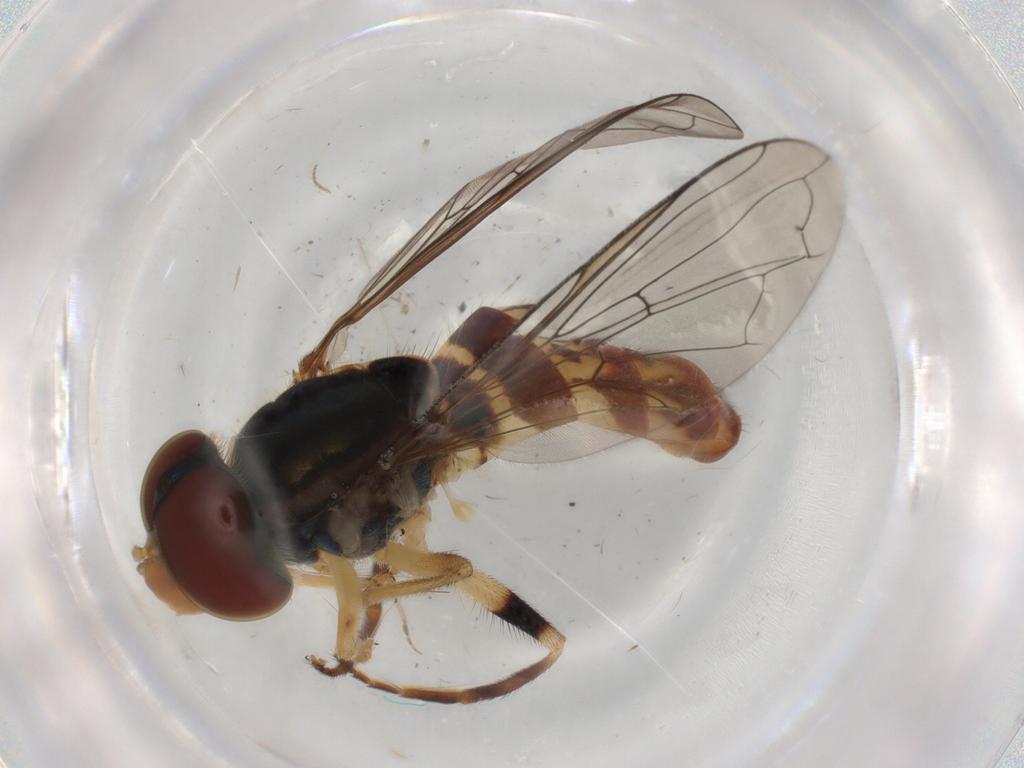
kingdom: Animalia
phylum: Arthropoda
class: Insecta
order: Diptera
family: Syrphidae
